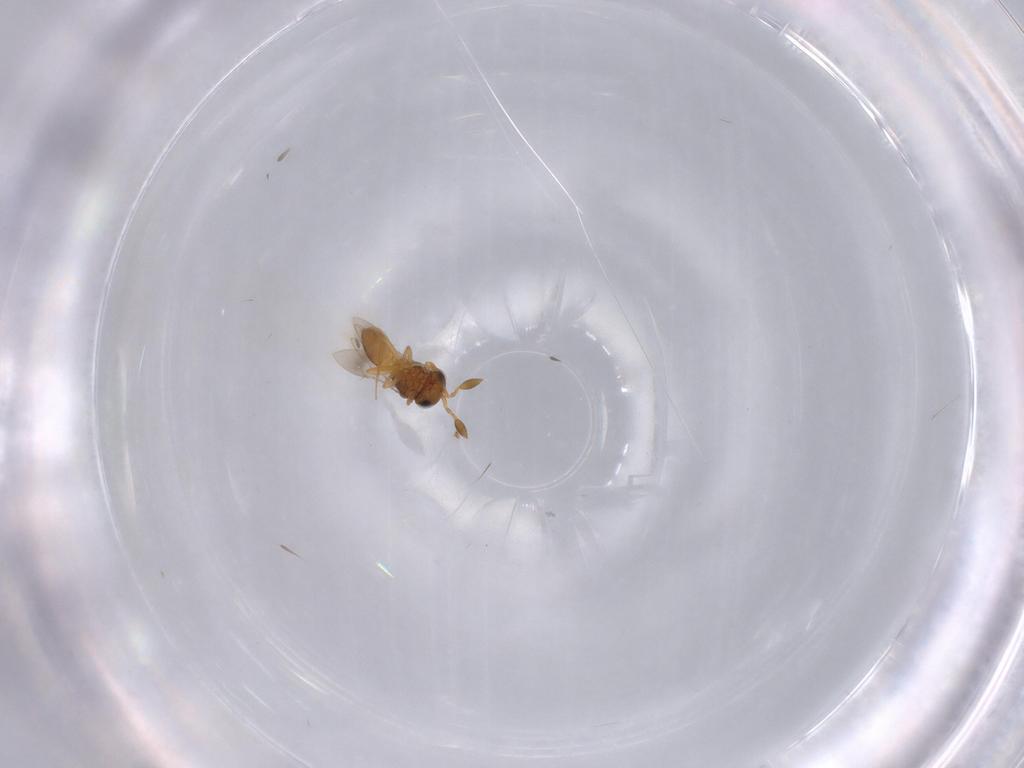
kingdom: Animalia
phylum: Arthropoda
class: Insecta
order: Hymenoptera
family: Scelionidae
